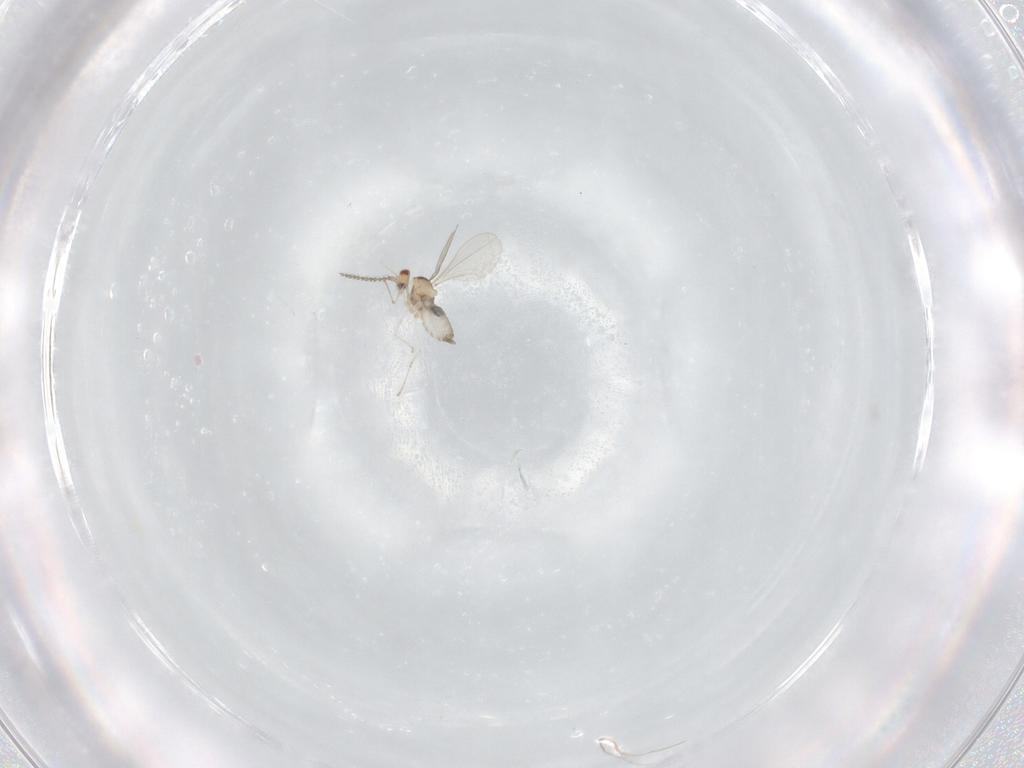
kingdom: Animalia
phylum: Arthropoda
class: Insecta
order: Diptera
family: Cecidomyiidae
